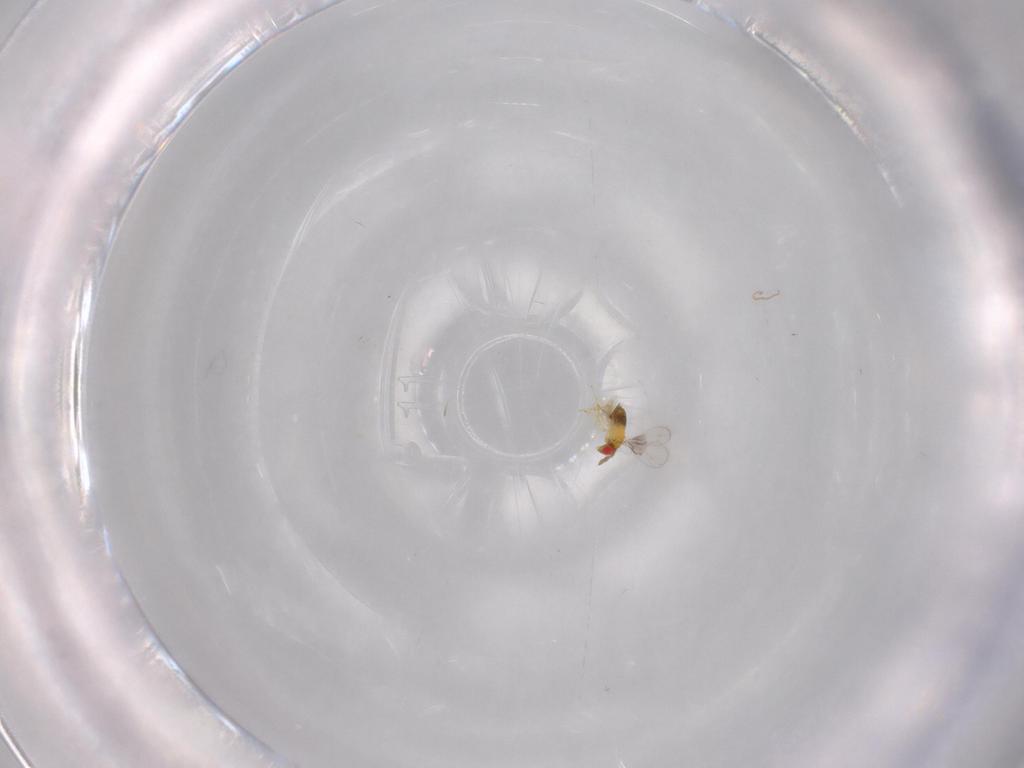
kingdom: Animalia
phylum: Arthropoda
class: Insecta
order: Hymenoptera
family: Trichogrammatidae
